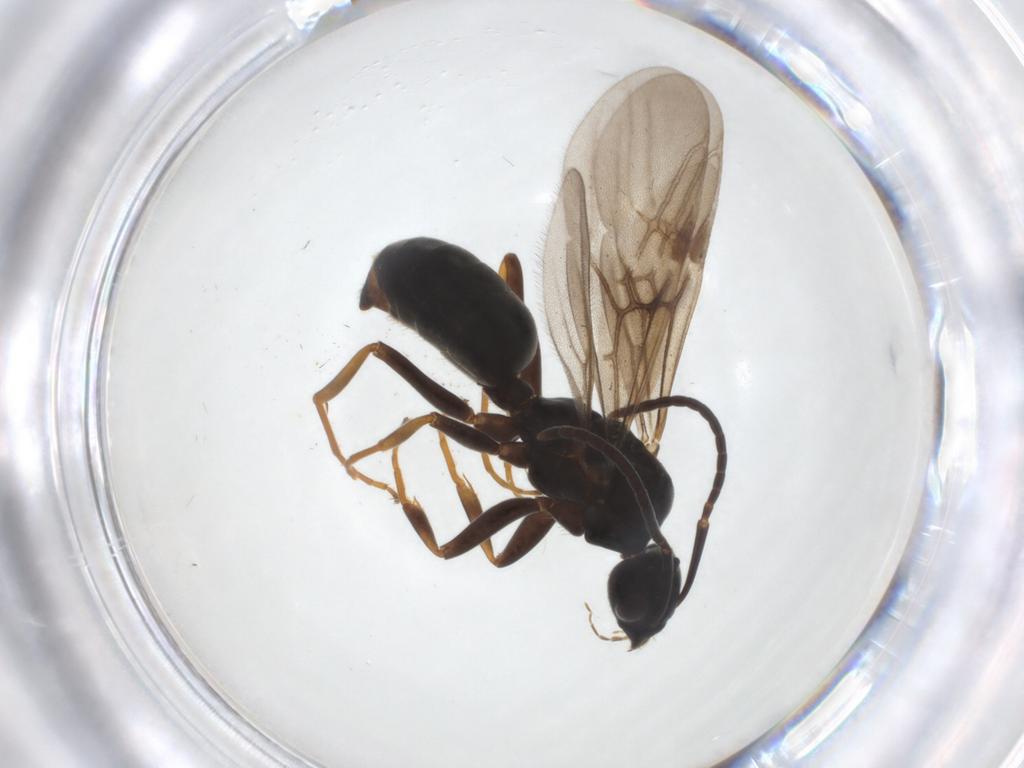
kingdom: Animalia
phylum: Arthropoda
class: Insecta
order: Hymenoptera
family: Formicidae
